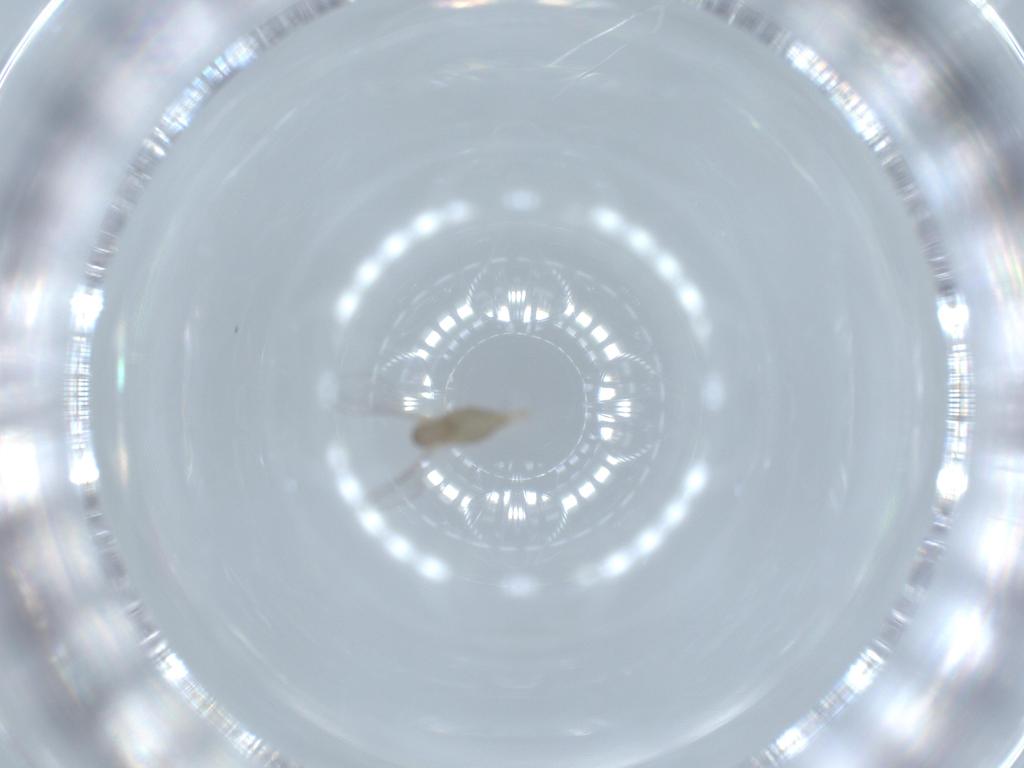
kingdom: Animalia
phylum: Arthropoda
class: Insecta
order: Diptera
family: Cecidomyiidae
